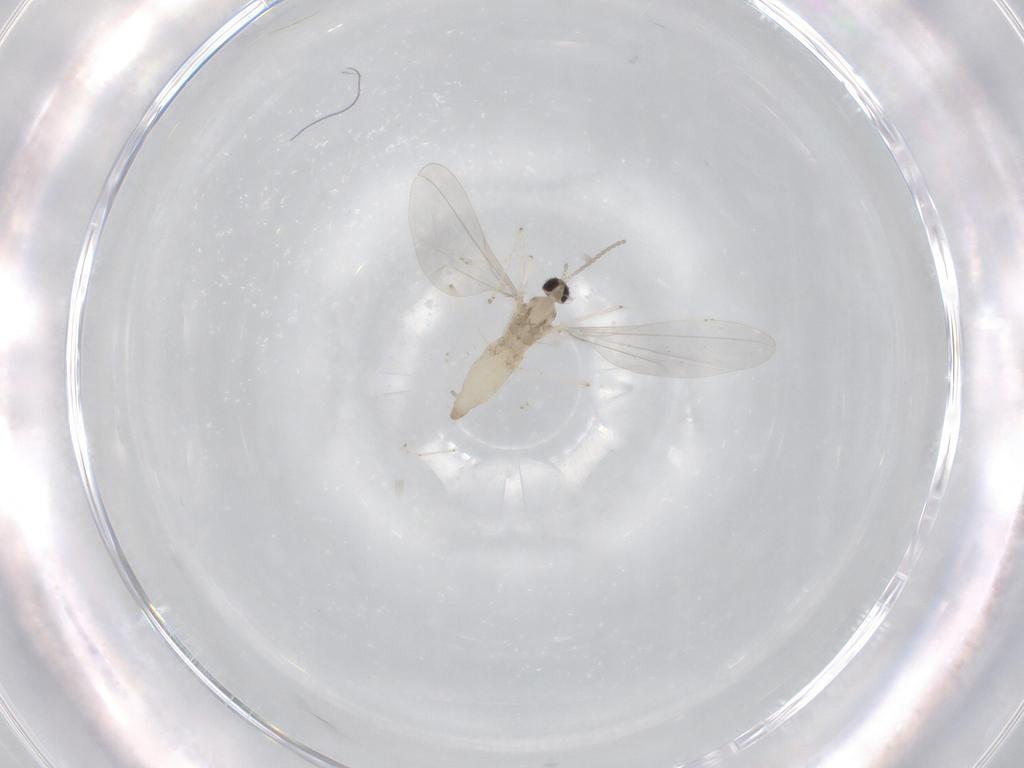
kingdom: Animalia
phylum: Arthropoda
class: Insecta
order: Diptera
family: Cecidomyiidae
